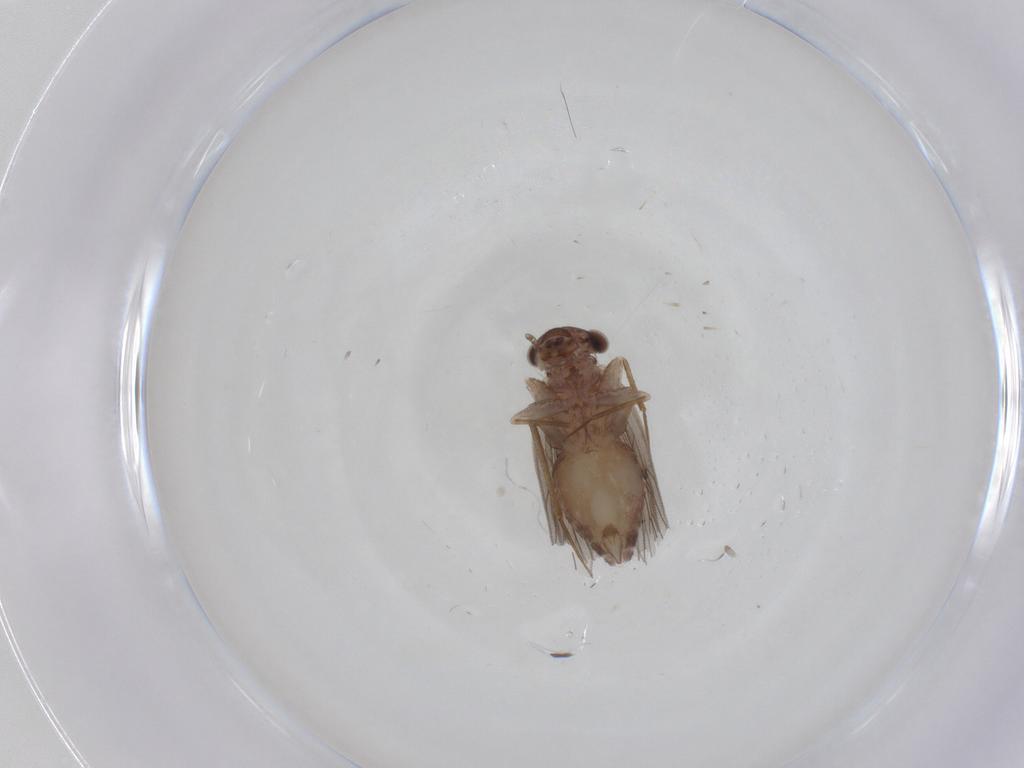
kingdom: Animalia
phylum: Arthropoda
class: Insecta
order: Psocodea
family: Lepidopsocidae
